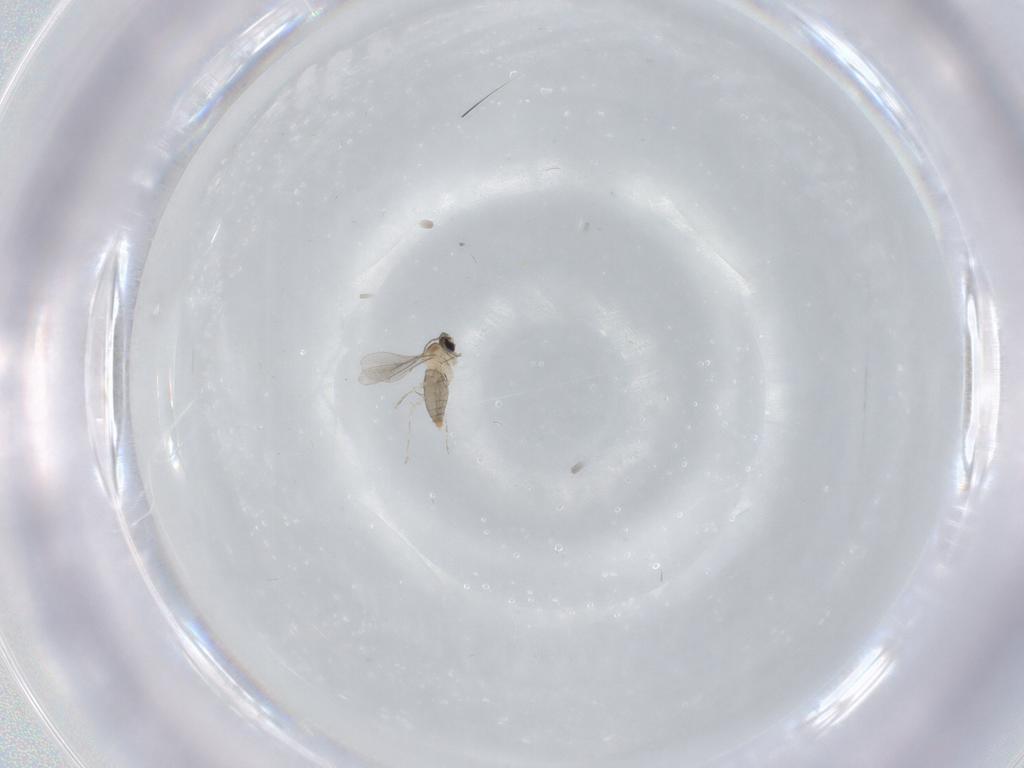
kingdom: Animalia
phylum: Arthropoda
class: Insecta
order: Diptera
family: Cecidomyiidae
